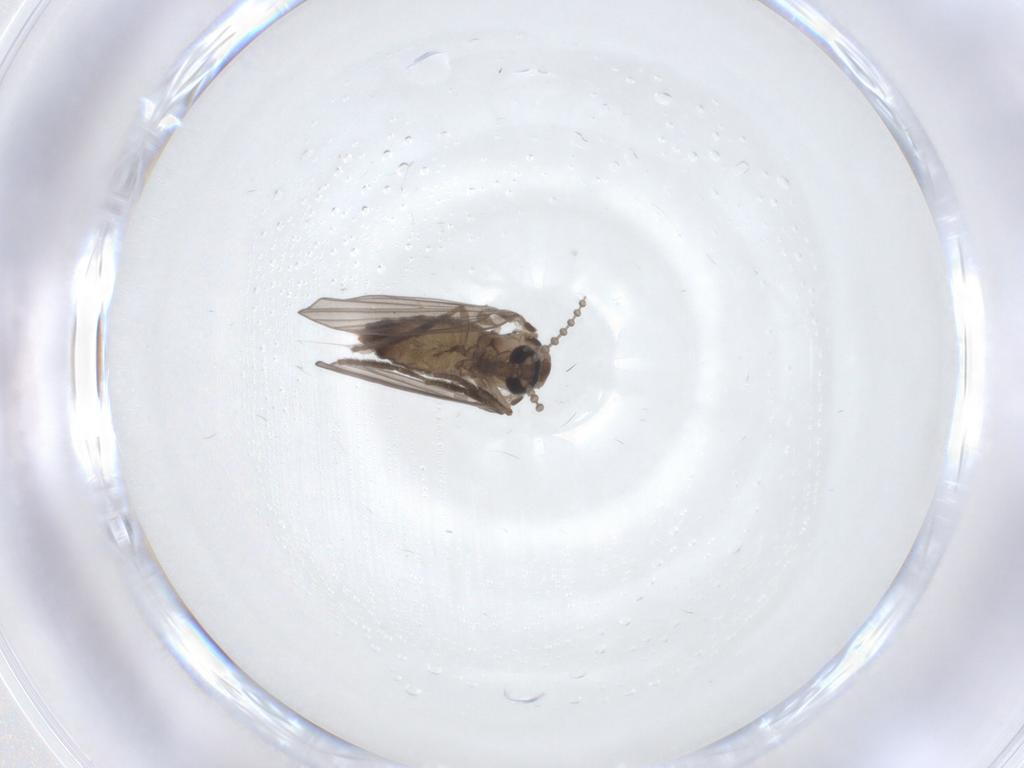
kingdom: Animalia
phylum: Arthropoda
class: Insecta
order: Diptera
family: Psychodidae
